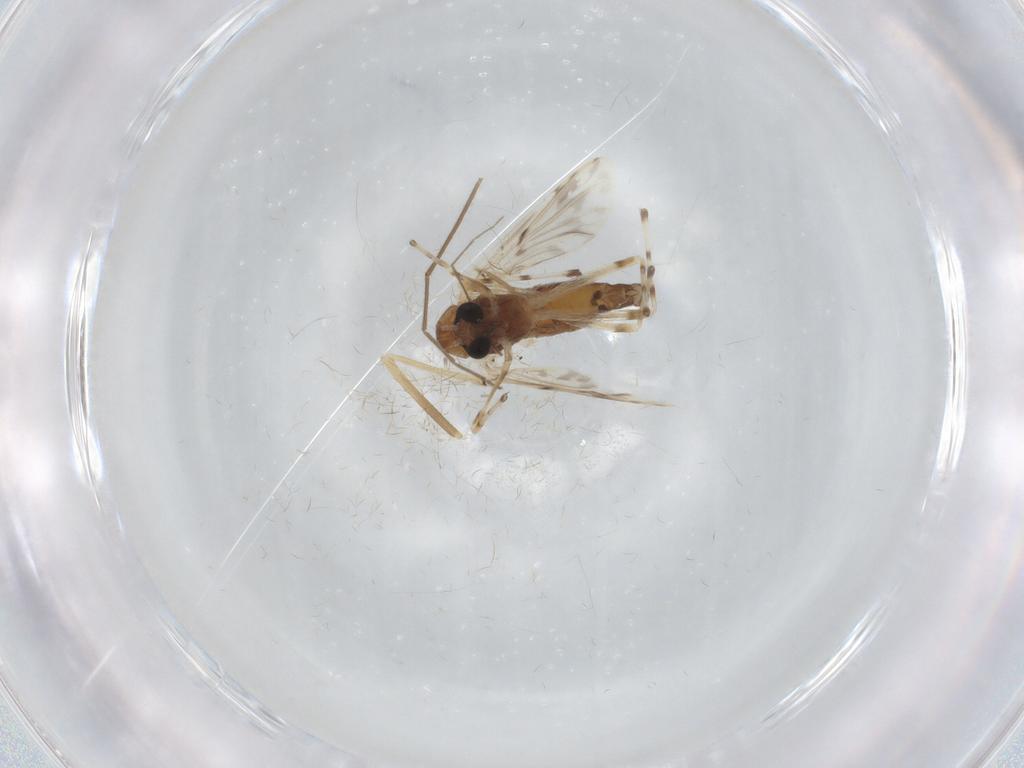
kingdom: Animalia
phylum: Arthropoda
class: Insecta
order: Diptera
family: Chironomidae
